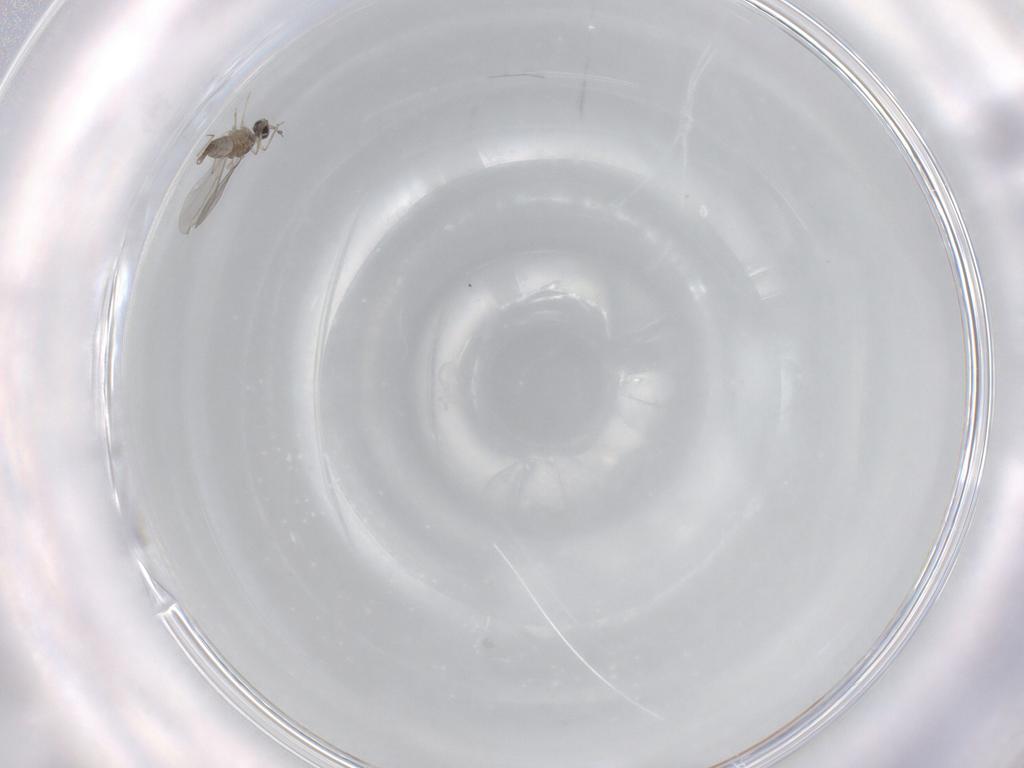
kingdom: Animalia
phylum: Arthropoda
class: Insecta
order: Diptera
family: Cecidomyiidae
